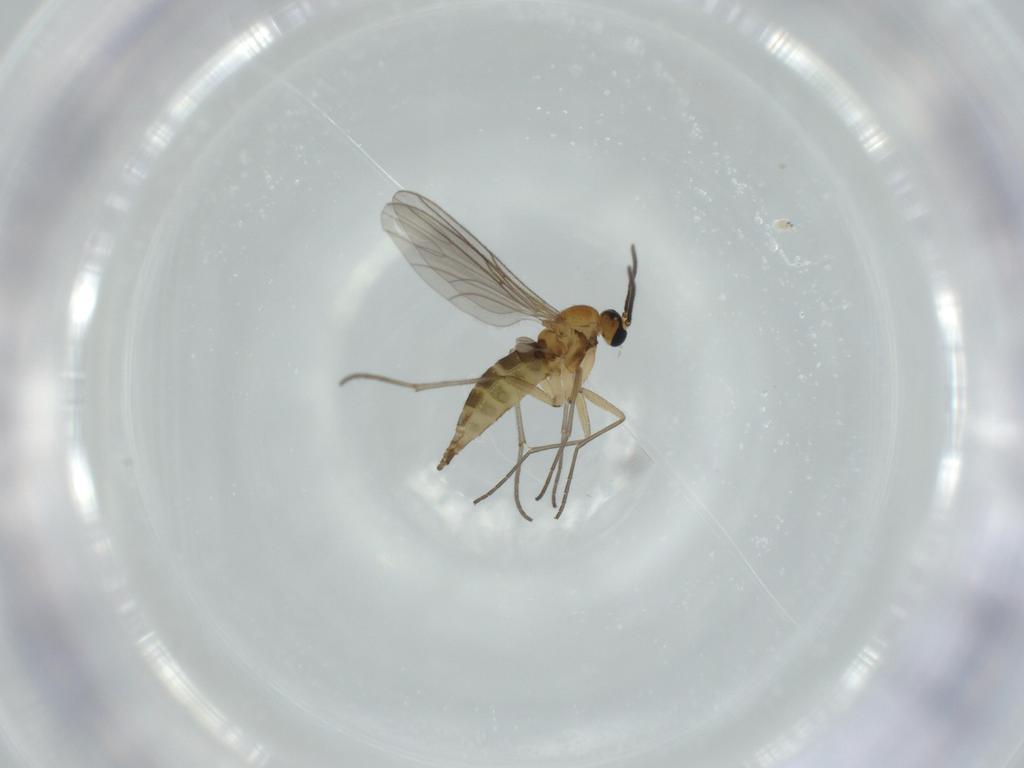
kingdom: Animalia
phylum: Arthropoda
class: Insecta
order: Diptera
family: Sciaridae
